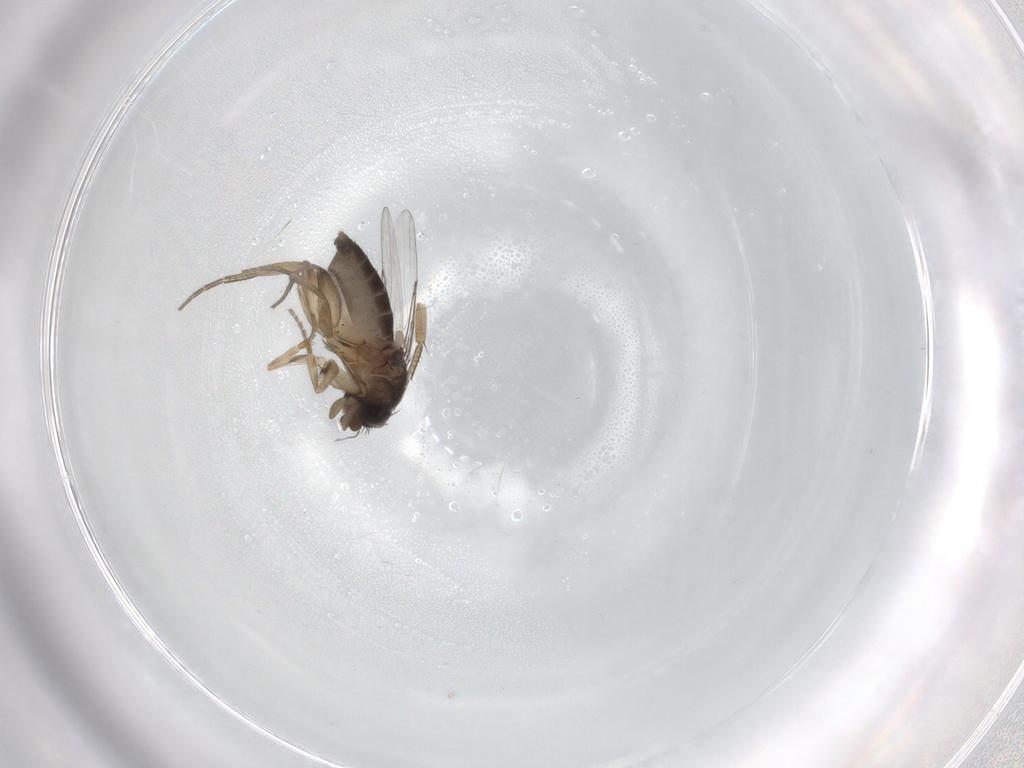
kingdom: Animalia
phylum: Arthropoda
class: Insecta
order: Diptera
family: Phoridae
